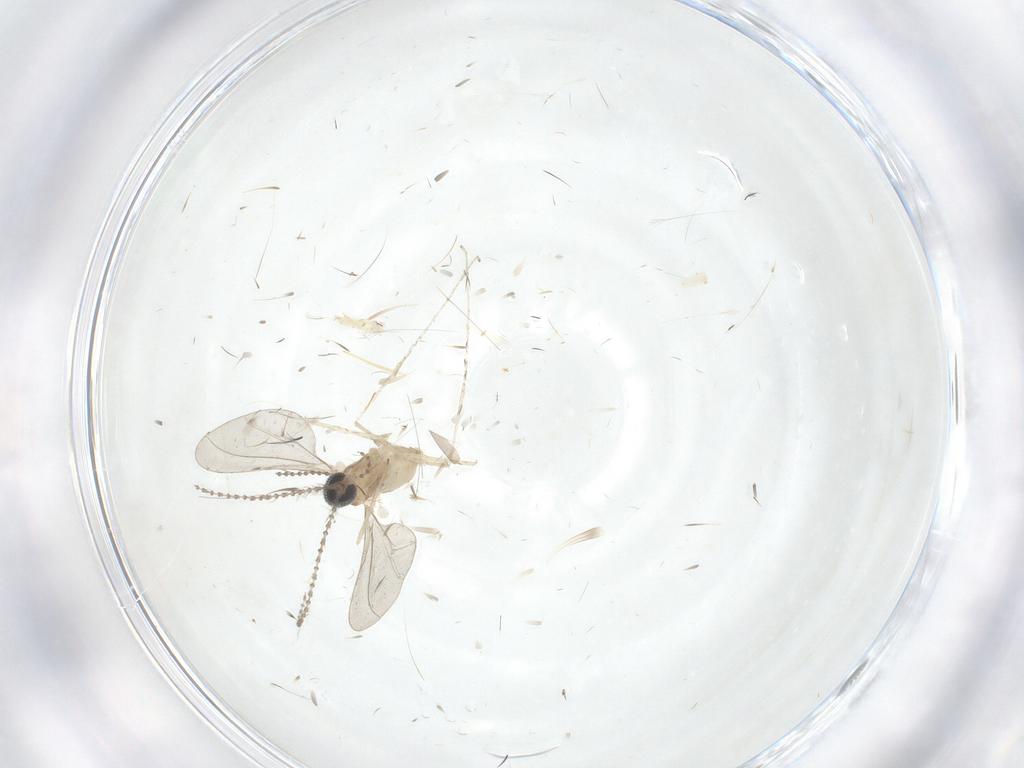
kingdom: Animalia
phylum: Arthropoda
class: Insecta
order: Diptera
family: Cecidomyiidae
